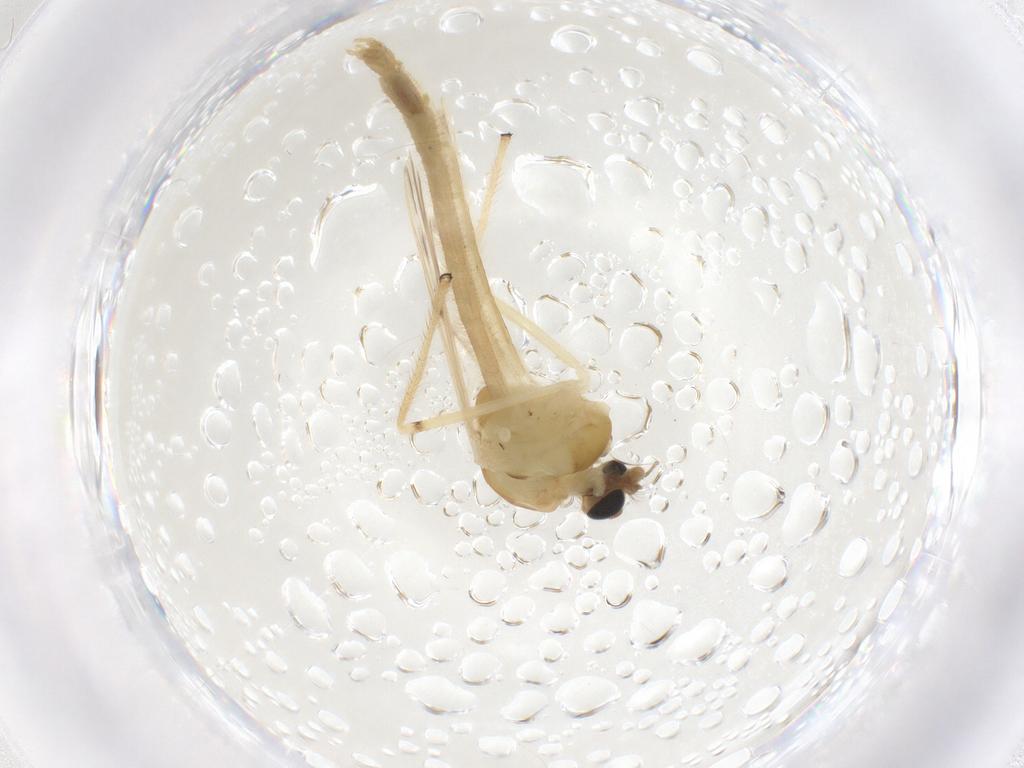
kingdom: Animalia
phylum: Arthropoda
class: Insecta
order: Diptera
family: Chironomidae
